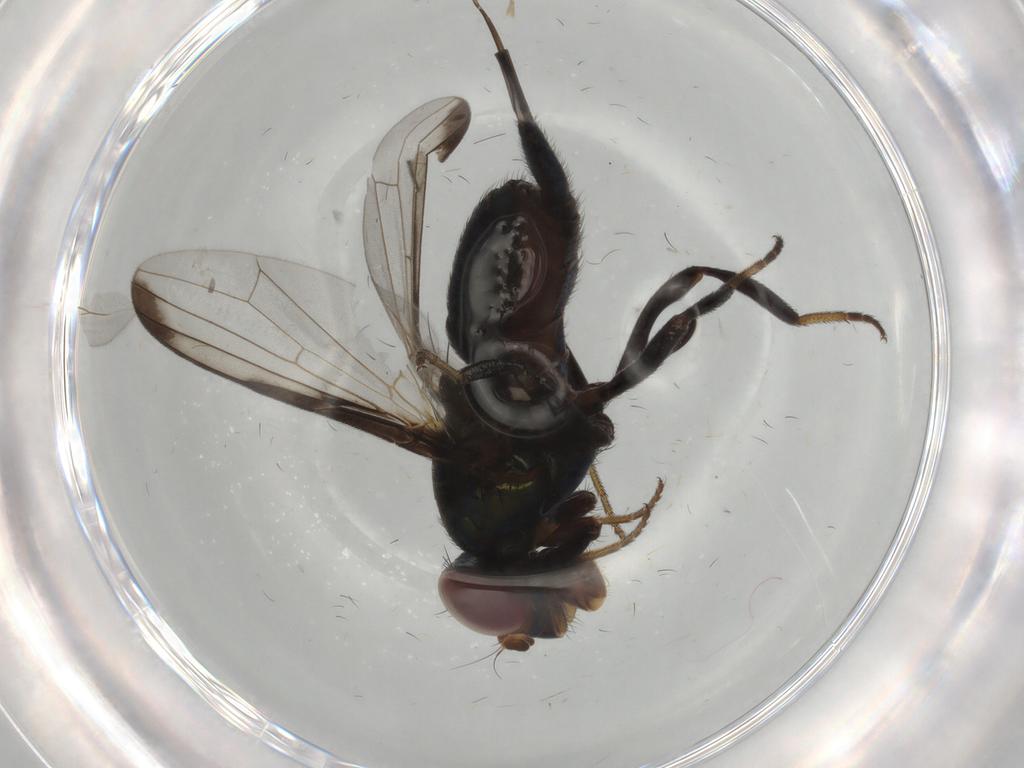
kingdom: Animalia
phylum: Arthropoda
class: Insecta
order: Diptera
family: Ulidiidae
